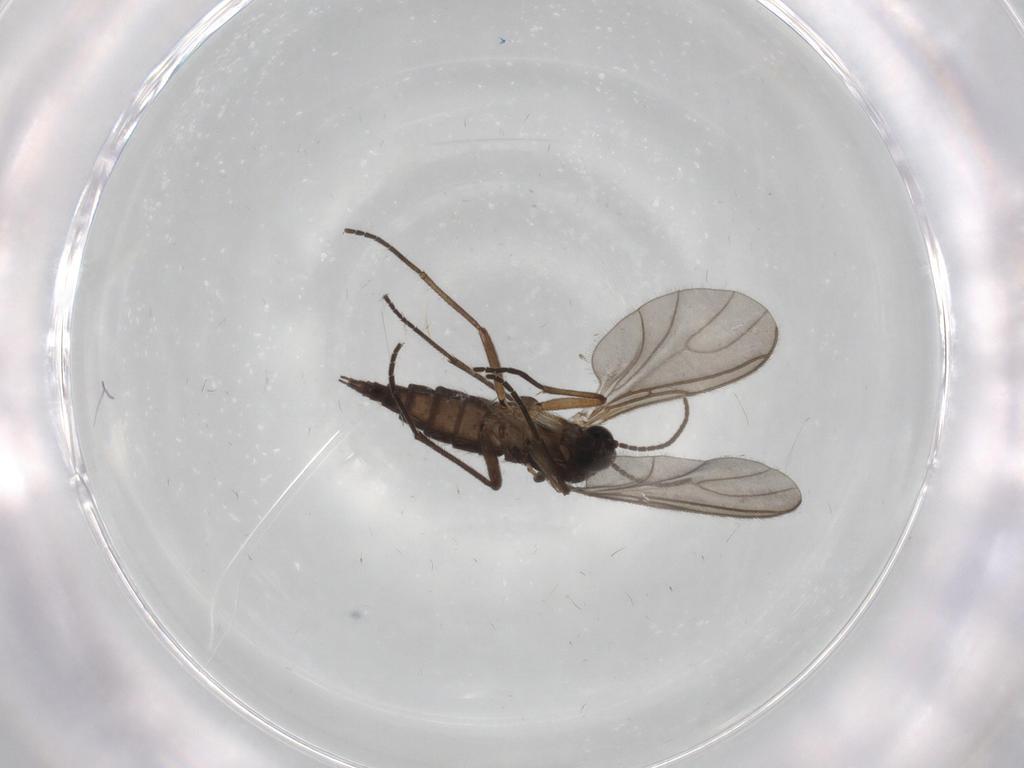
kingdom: Animalia
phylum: Arthropoda
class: Insecta
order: Diptera
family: Sciaridae
